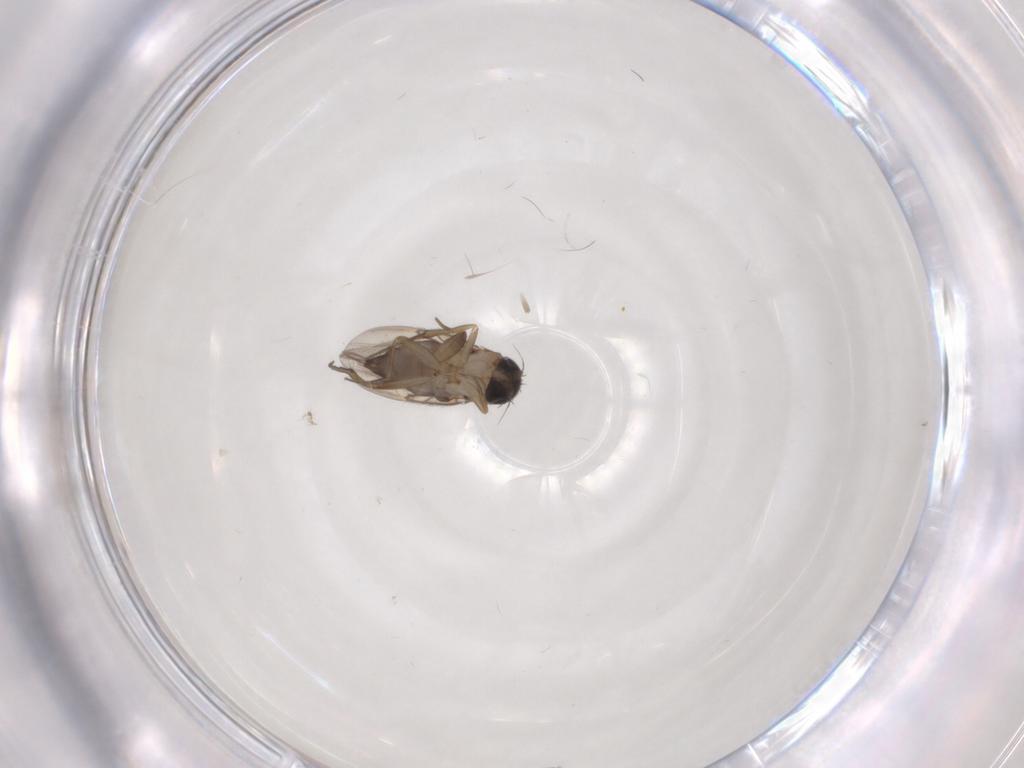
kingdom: Animalia
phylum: Arthropoda
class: Insecta
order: Diptera
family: Phoridae
